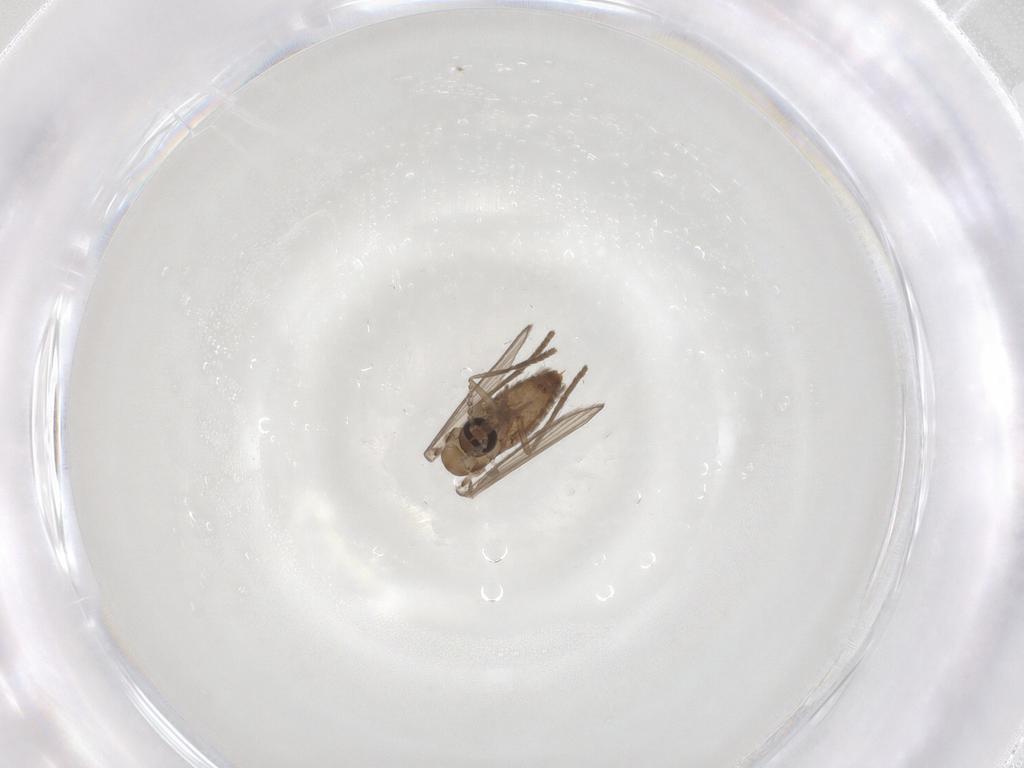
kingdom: Animalia
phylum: Arthropoda
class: Insecta
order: Diptera
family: Psychodidae
